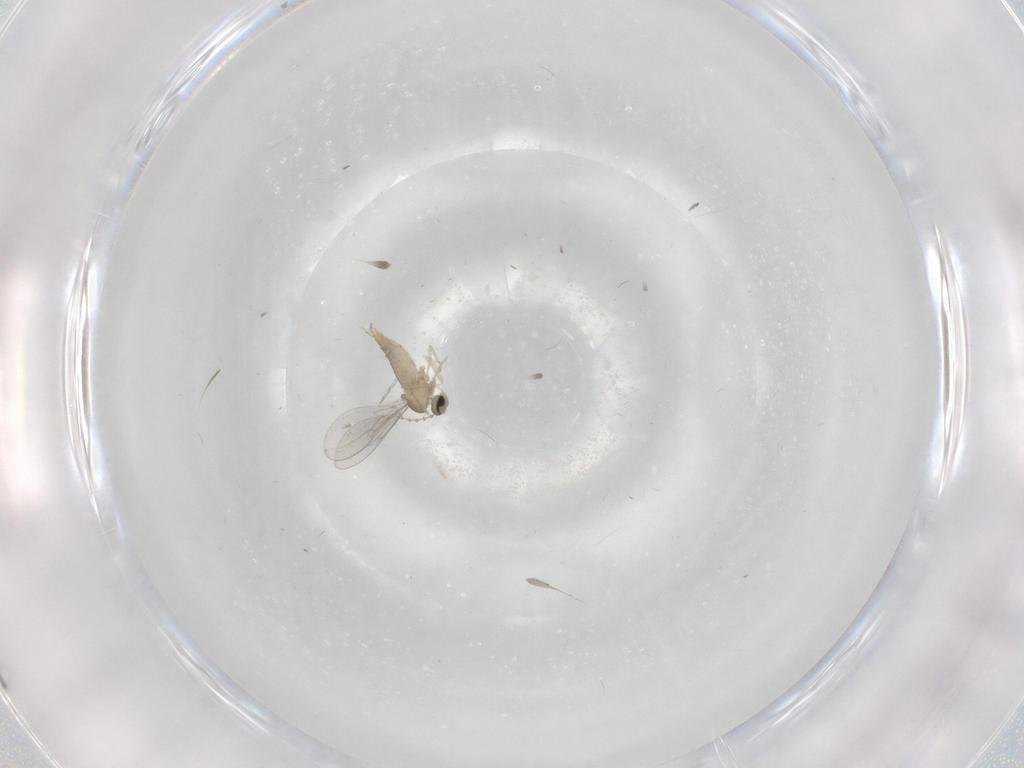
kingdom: Animalia
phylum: Arthropoda
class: Insecta
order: Diptera
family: Cecidomyiidae
